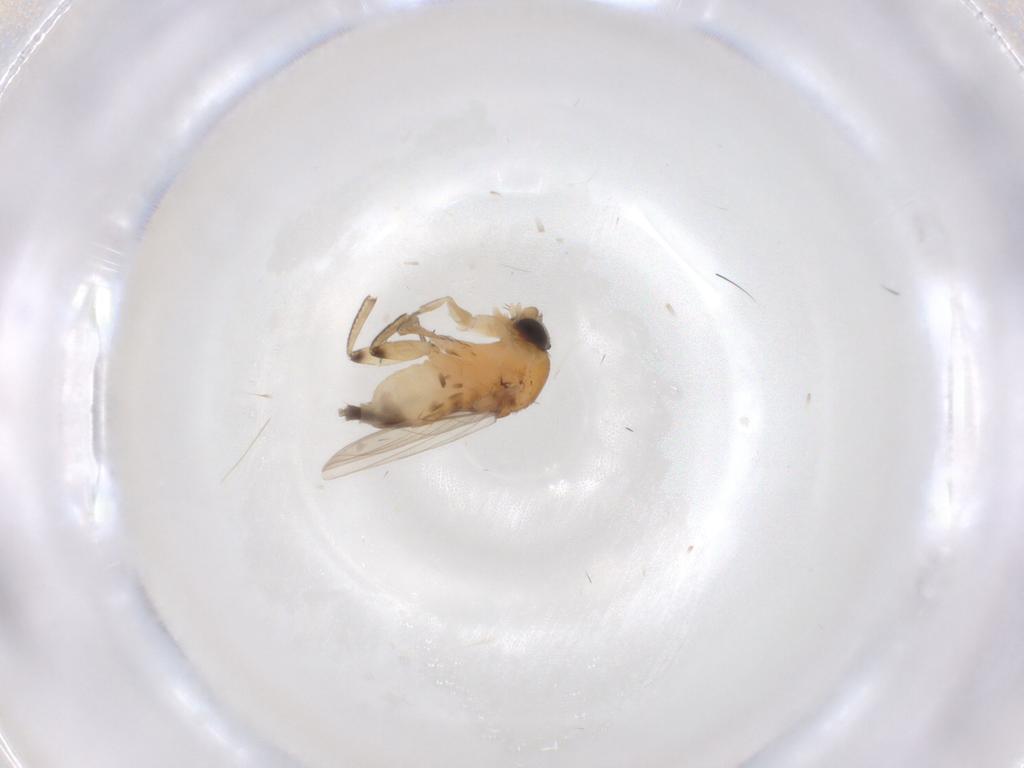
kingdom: Animalia
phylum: Arthropoda
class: Insecta
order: Diptera
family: Phoridae
